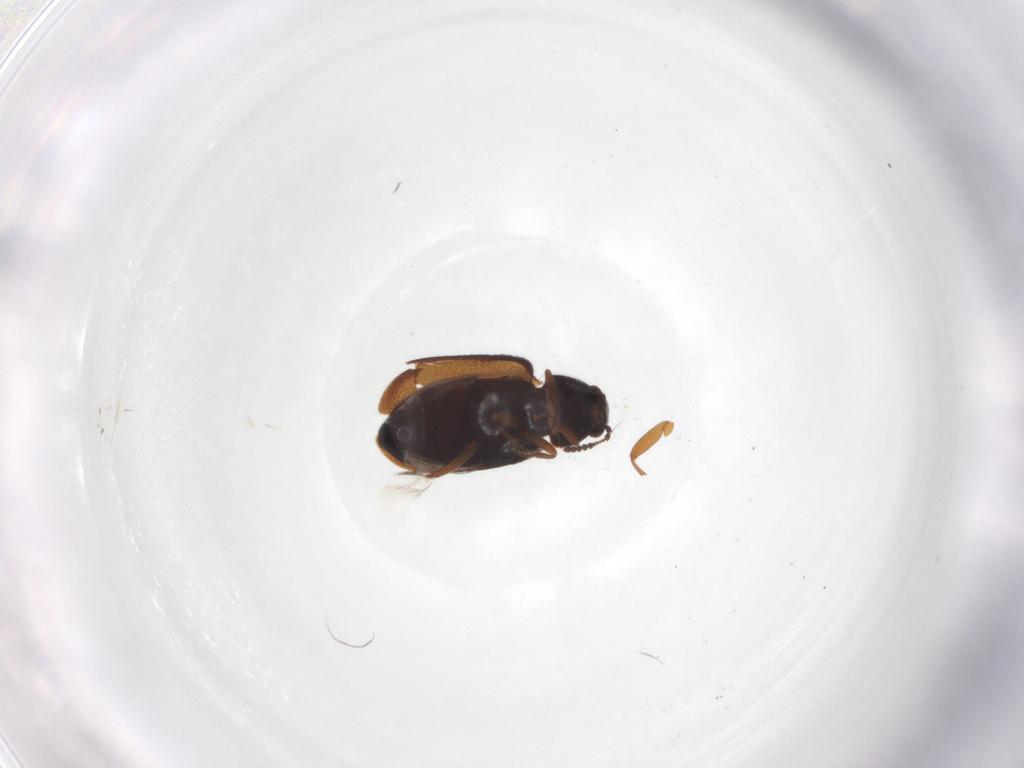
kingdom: Animalia
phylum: Arthropoda
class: Insecta
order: Coleoptera
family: Rhadalidae
